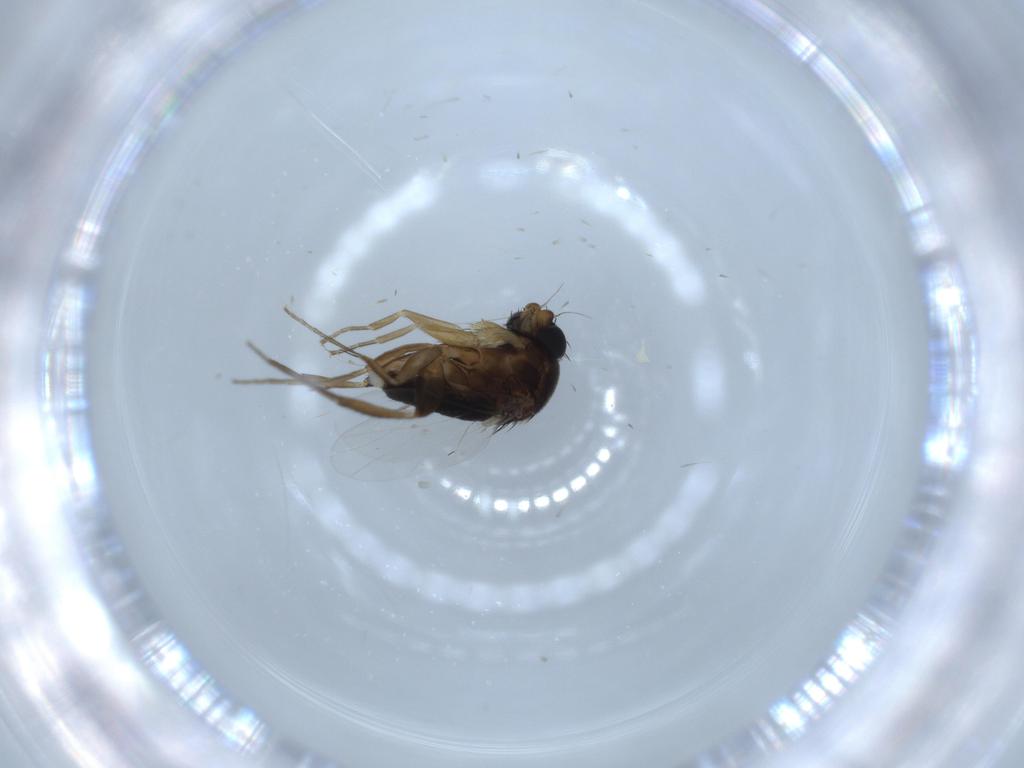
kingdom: Animalia
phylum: Arthropoda
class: Insecta
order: Diptera
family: Phoridae
